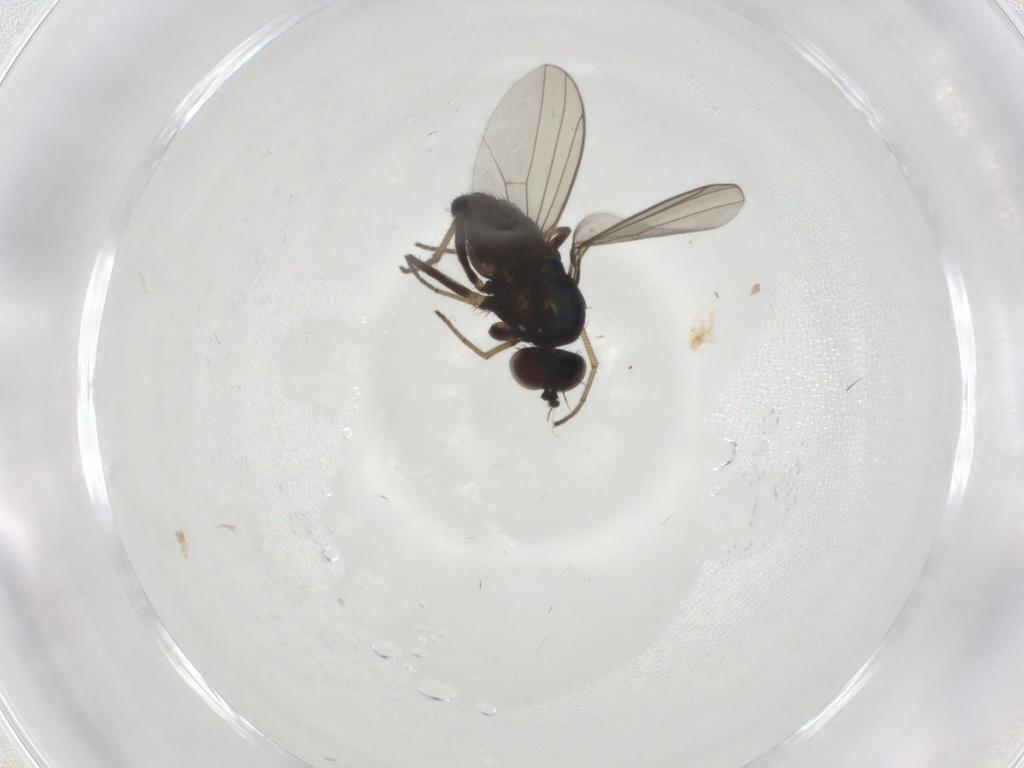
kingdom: Animalia
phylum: Arthropoda
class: Insecta
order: Diptera
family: Dolichopodidae
